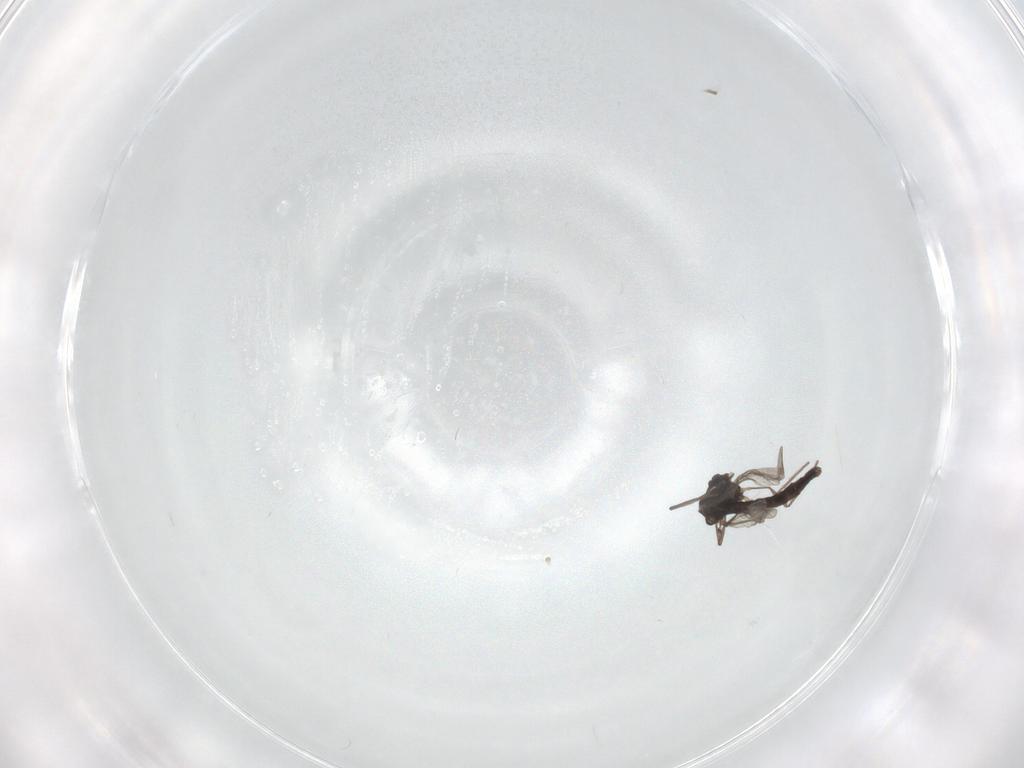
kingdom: Animalia
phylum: Arthropoda
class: Insecta
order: Diptera
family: Chironomidae
